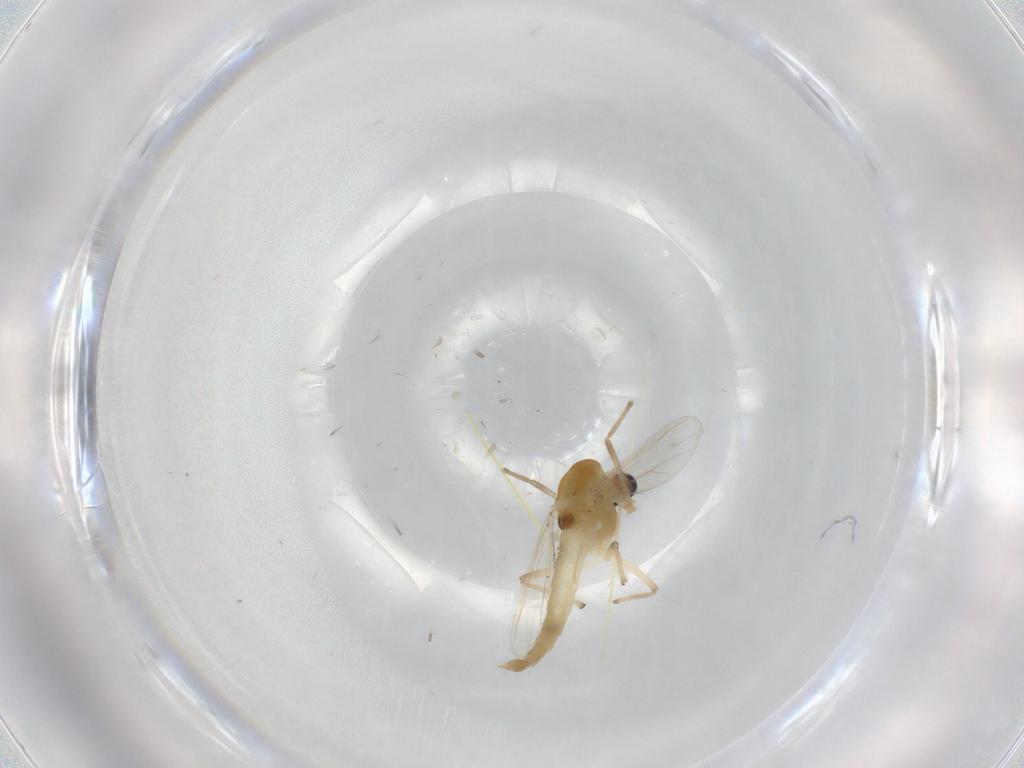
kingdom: Animalia
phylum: Arthropoda
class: Insecta
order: Diptera
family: Chironomidae
